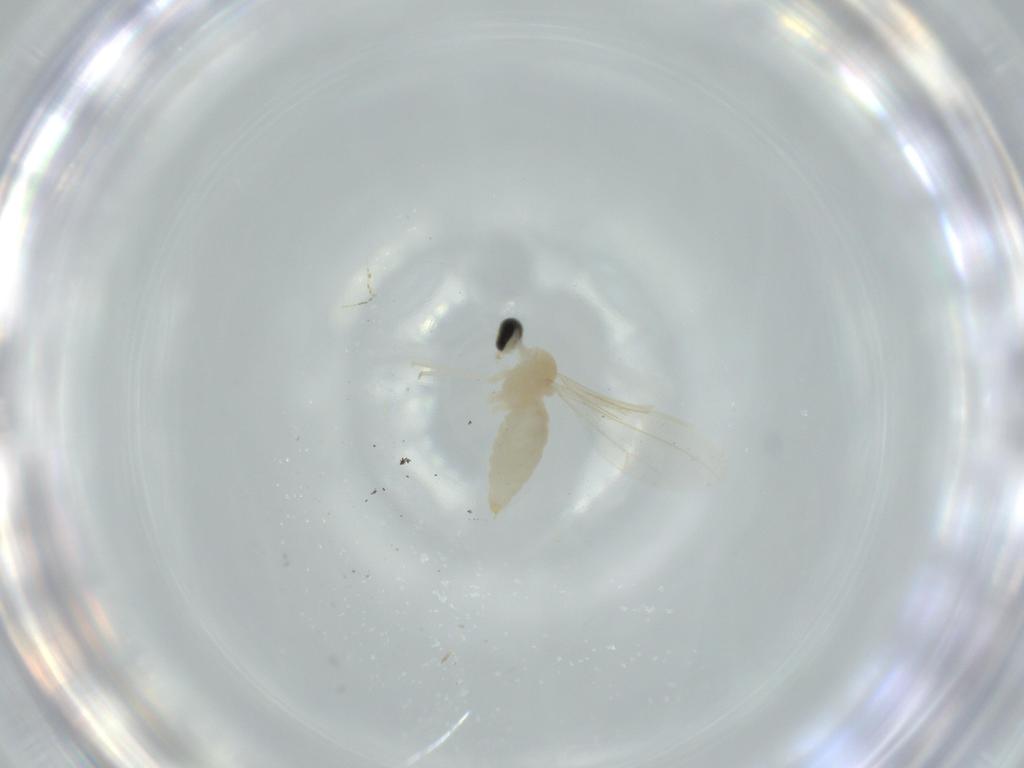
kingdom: Animalia
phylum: Arthropoda
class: Insecta
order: Diptera
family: Cecidomyiidae
